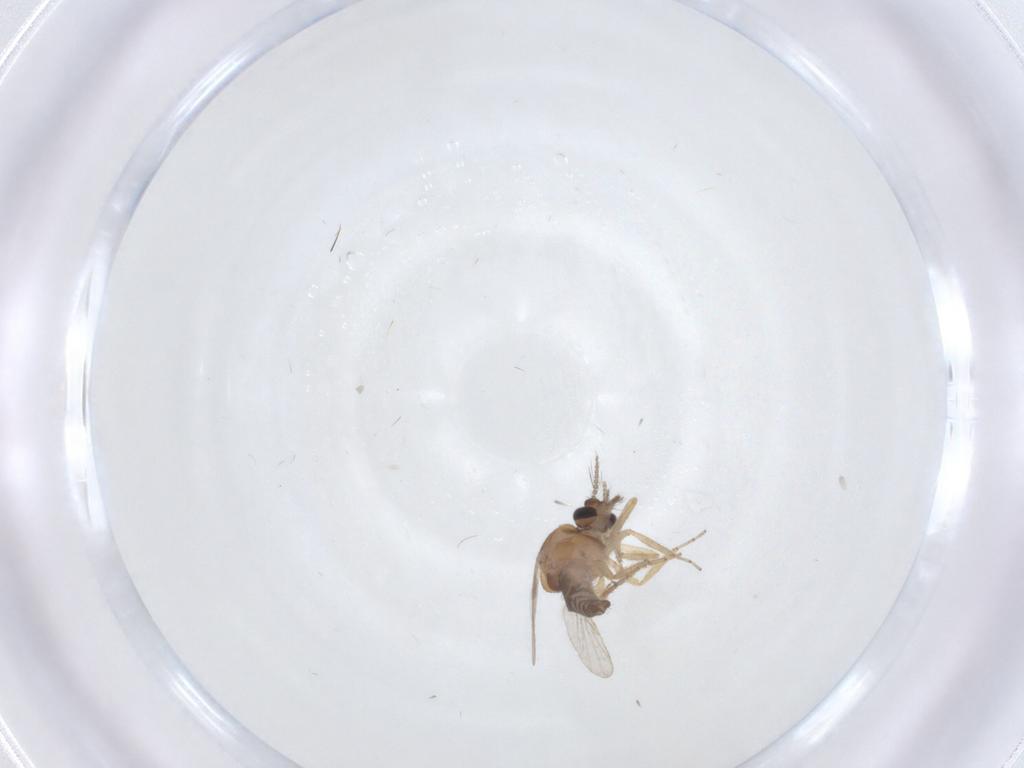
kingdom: Animalia
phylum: Arthropoda
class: Insecta
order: Diptera
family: Ceratopogonidae
